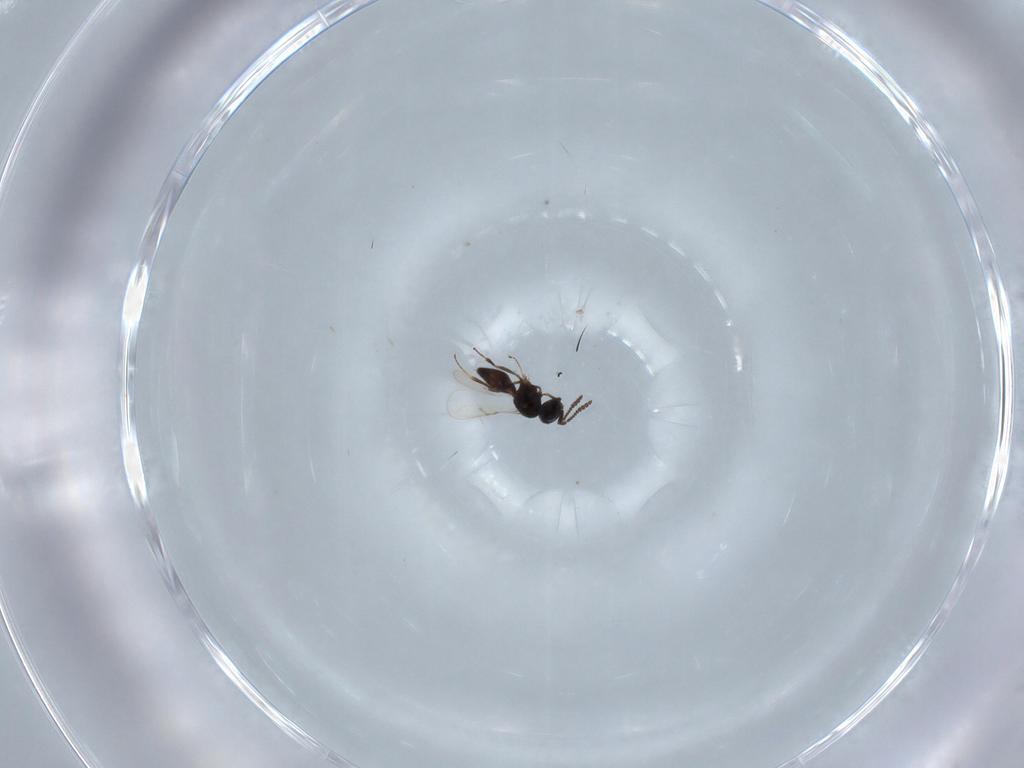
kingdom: Animalia
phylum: Arthropoda
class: Insecta
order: Hymenoptera
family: Scelionidae
